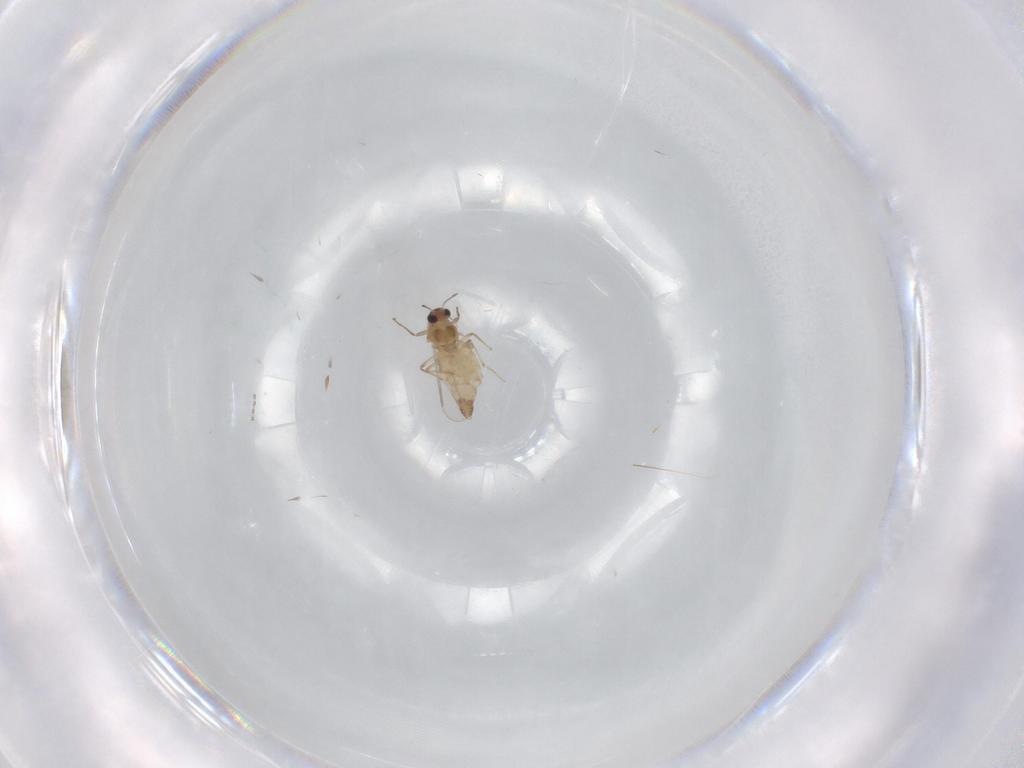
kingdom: Animalia
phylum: Arthropoda
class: Insecta
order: Diptera
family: Chironomidae
